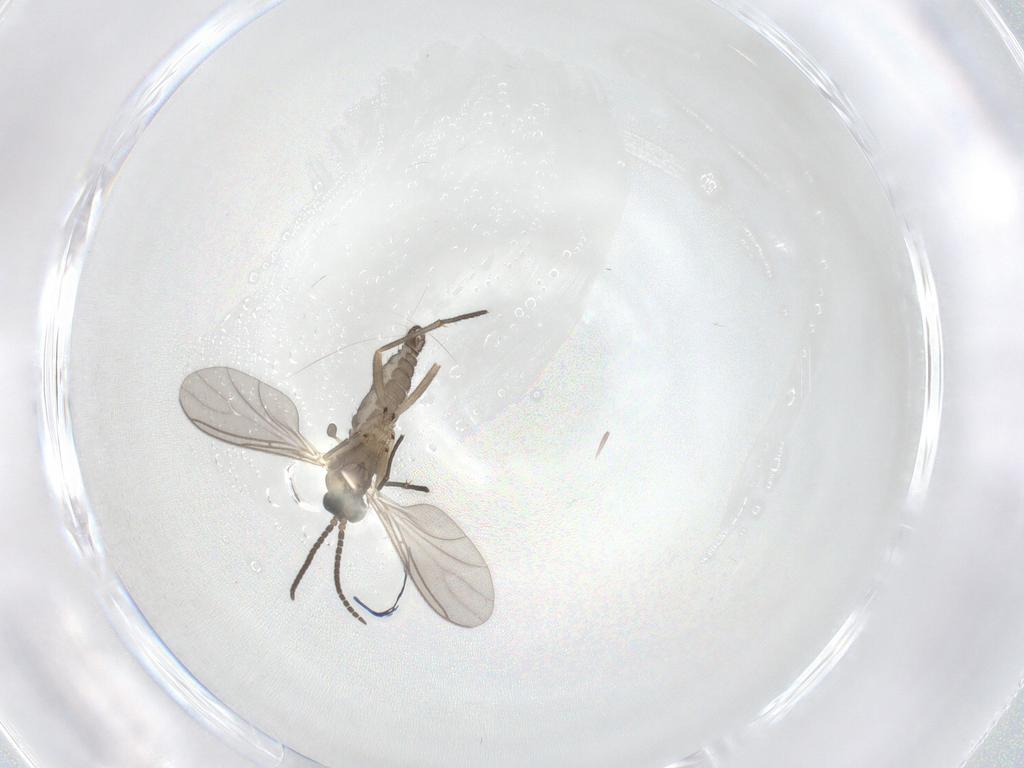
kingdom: Animalia
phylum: Arthropoda
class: Insecta
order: Diptera
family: Sciaridae
